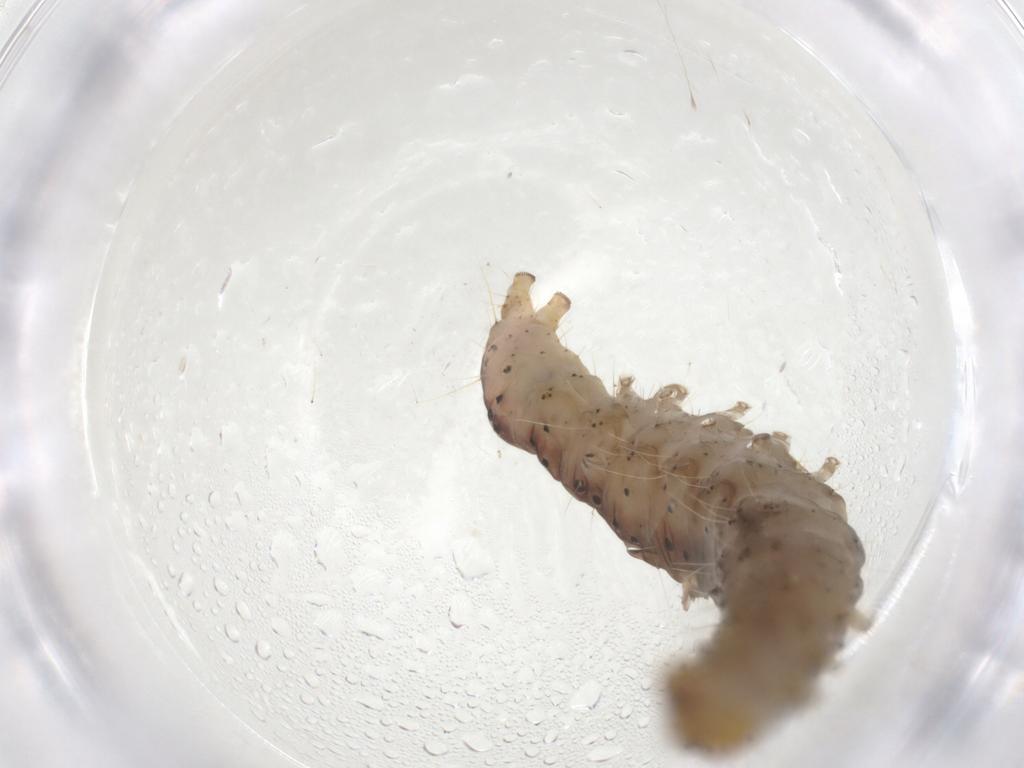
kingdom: Animalia
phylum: Arthropoda
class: Insecta
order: Lepidoptera
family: Choreutidae
